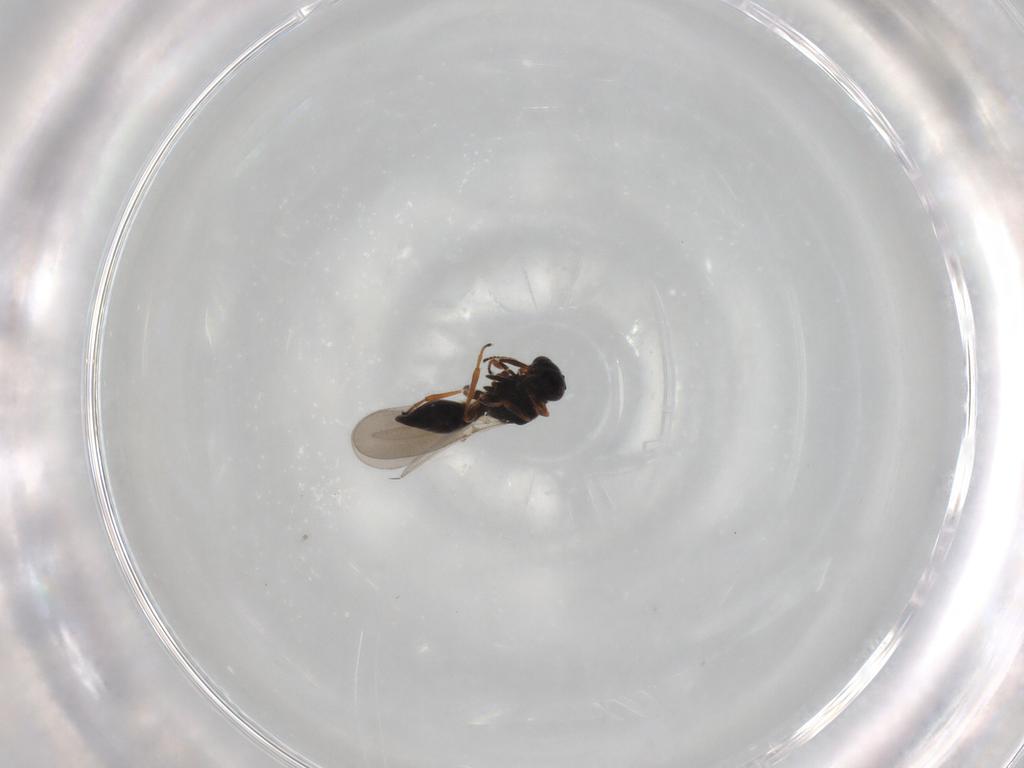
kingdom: Animalia
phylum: Arthropoda
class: Insecta
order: Hymenoptera
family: Platygastridae
